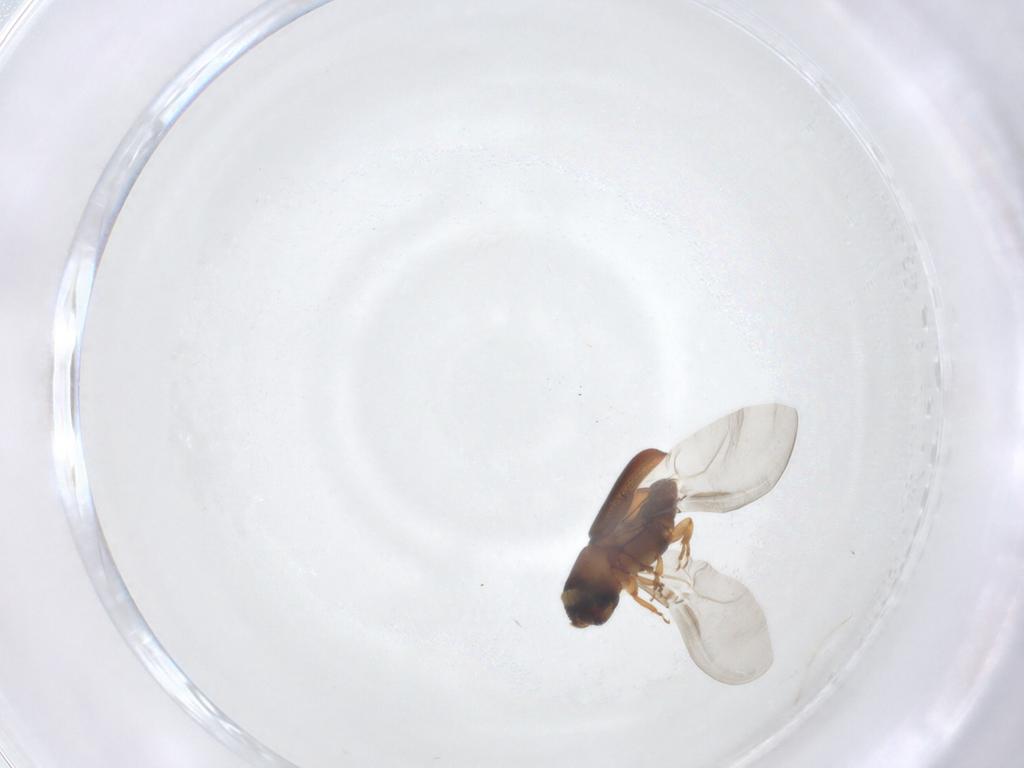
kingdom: Animalia
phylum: Arthropoda
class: Insecta
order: Coleoptera
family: Curculionidae
